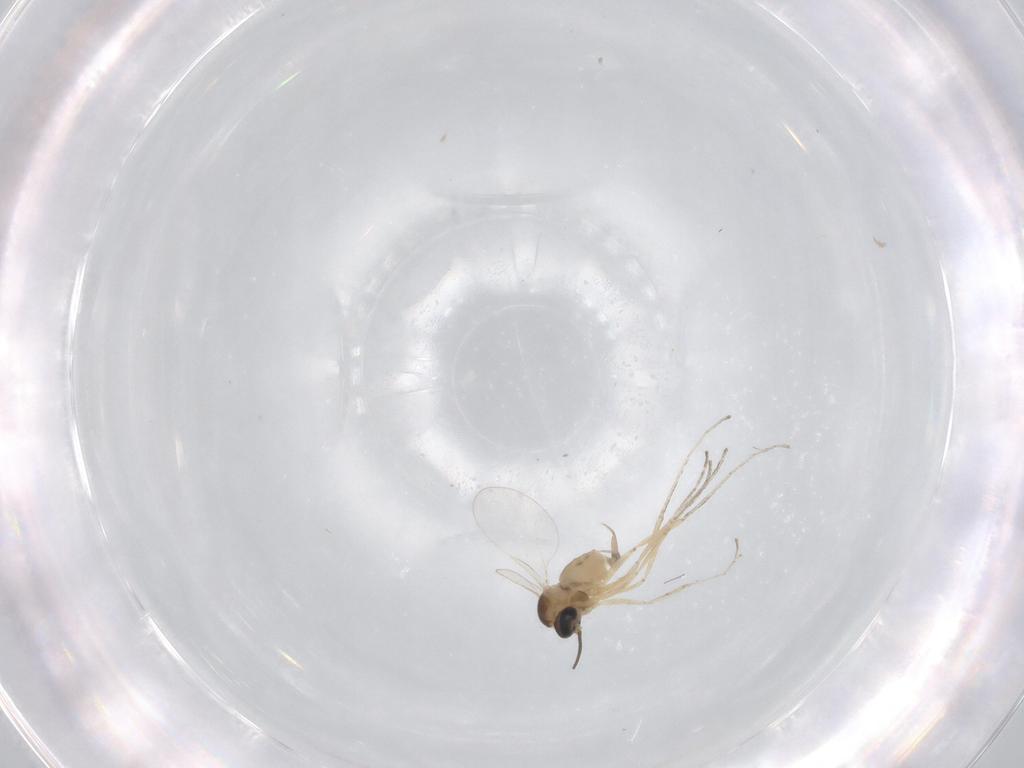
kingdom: Animalia
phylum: Arthropoda
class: Insecta
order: Diptera
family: Cecidomyiidae
